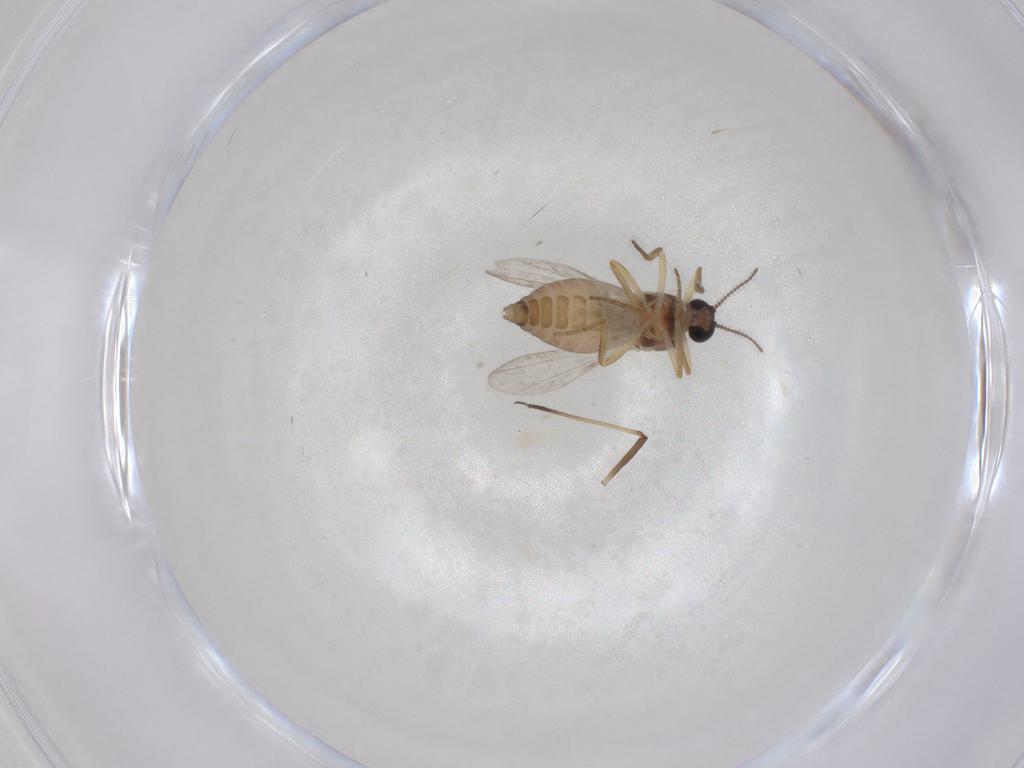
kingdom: Animalia
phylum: Arthropoda
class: Insecta
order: Diptera
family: Ceratopogonidae
